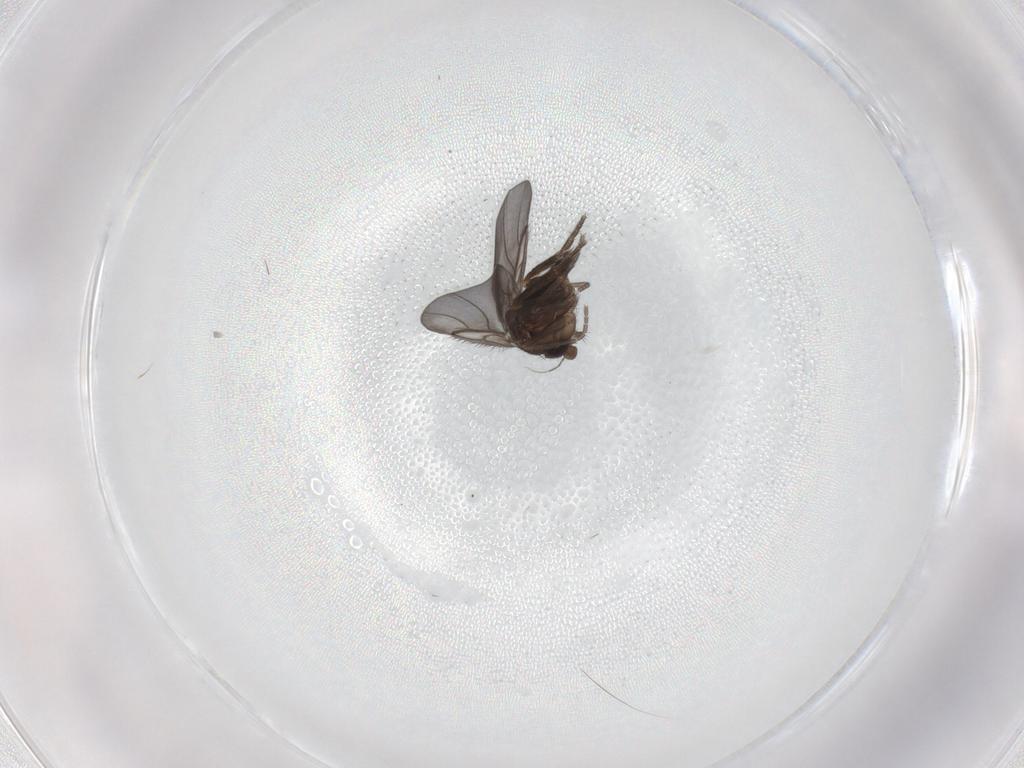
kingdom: Animalia
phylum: Arthropoda
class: Insecta
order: Diptera
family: Phoridae
